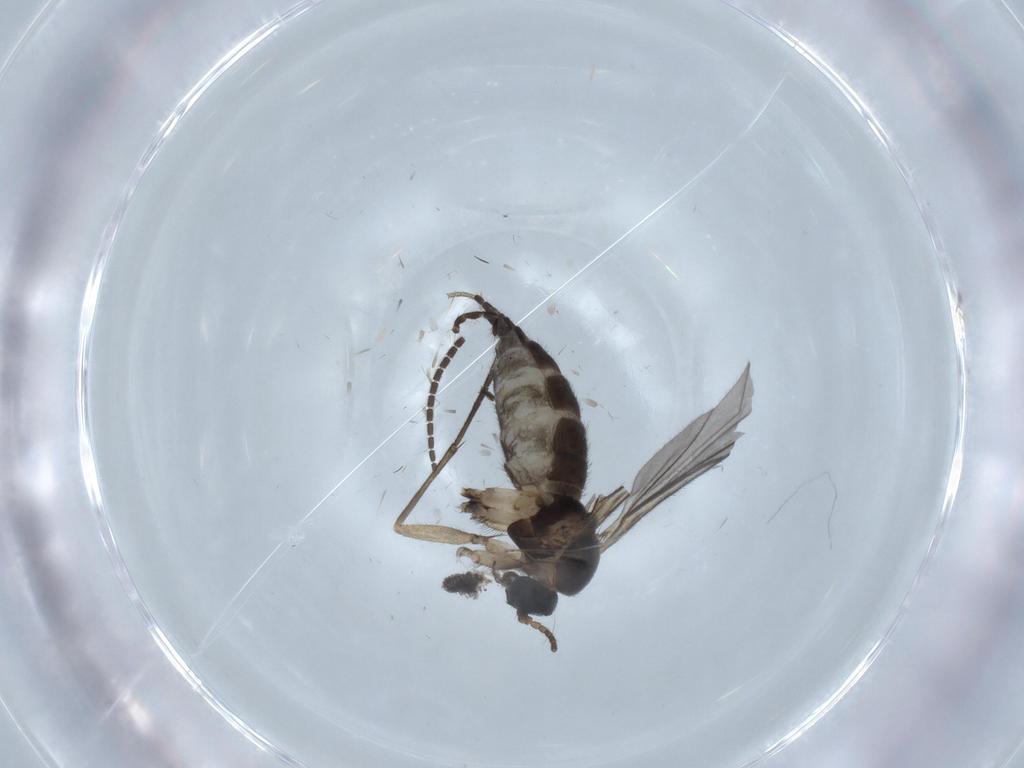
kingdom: Animalia
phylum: Arthropoda
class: Insecta
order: Diptera
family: Sciaridae
